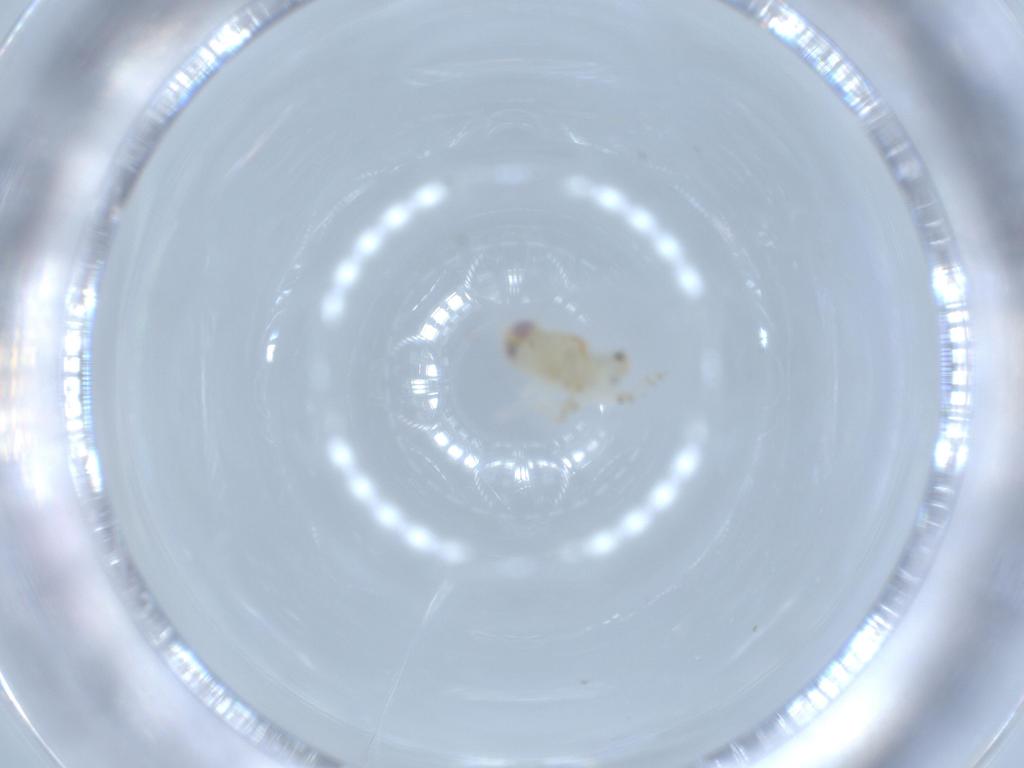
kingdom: Animalia
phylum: Arthropoda
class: Insecta
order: Hemiptera
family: Nogodinidae
